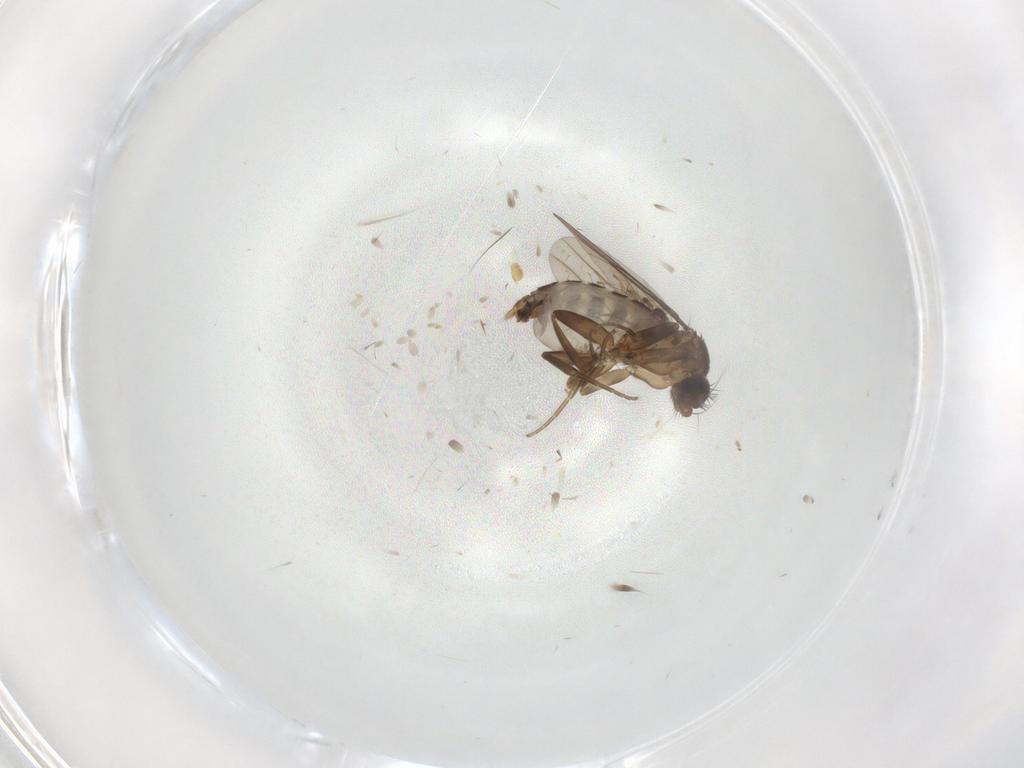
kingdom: Animalia
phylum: Arthropoda
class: Insecta
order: Diptera
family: Phoridae
